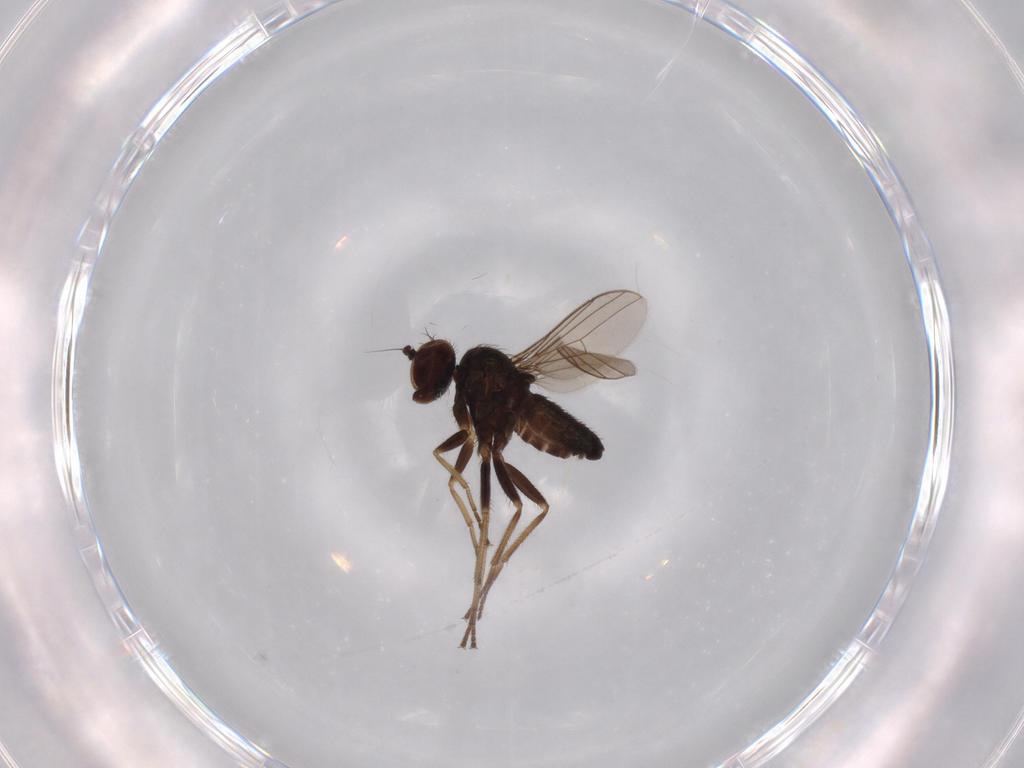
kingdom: Animalia
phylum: Arthropoda
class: Insecta
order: Diptera
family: Dolichopodidae
